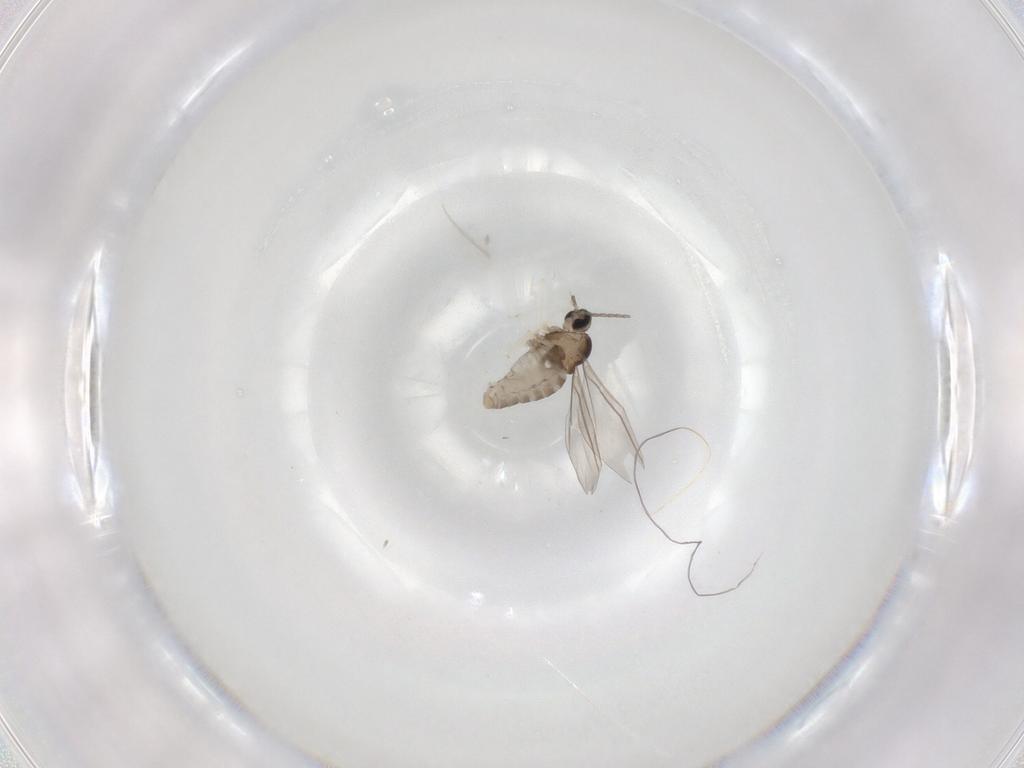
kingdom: Animalia
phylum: Arthropoda
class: Insecta
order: Diptera
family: Cecidomyiidae
